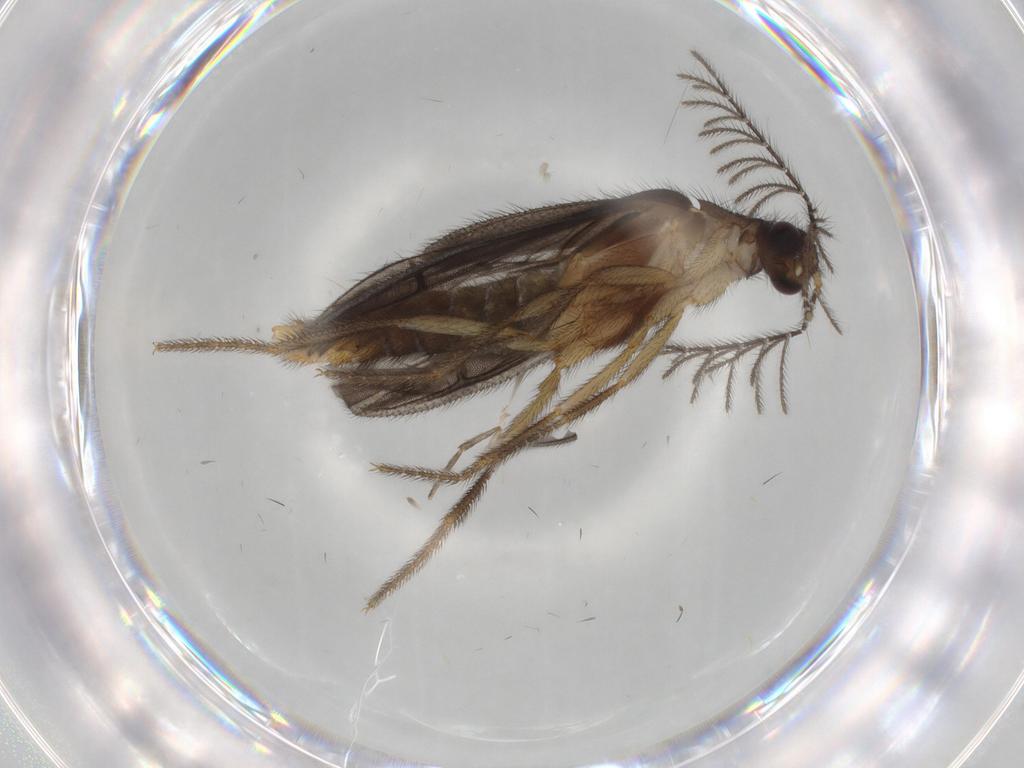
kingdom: Animalia
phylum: Arthropoda
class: Insecta
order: Coleoptera
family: Phengodidae
